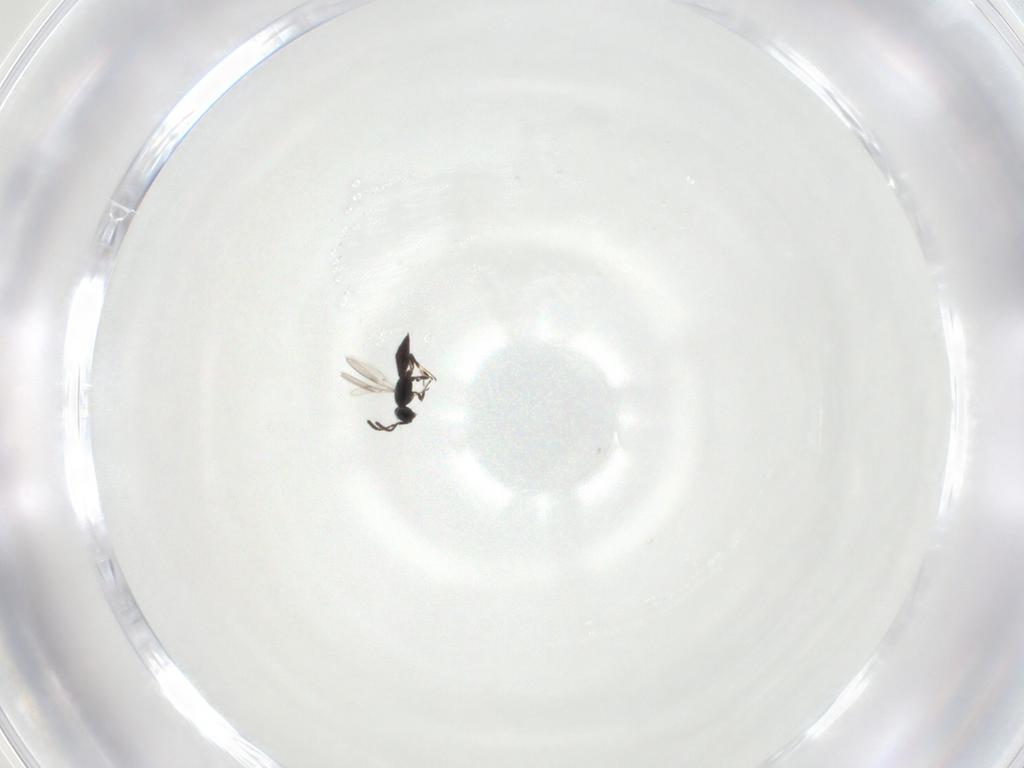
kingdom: Animalia
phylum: Arthropoda
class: Insecta
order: Hymenoptera
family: Scelionidae
